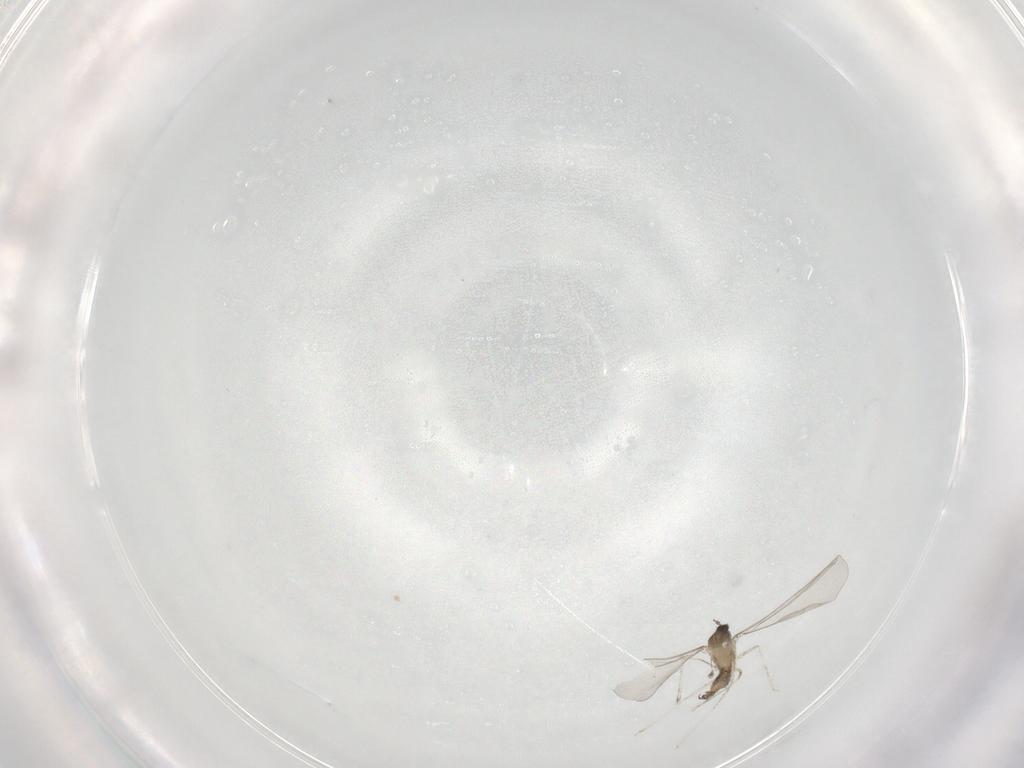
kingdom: Animalia
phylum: Arthropoda
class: Insecta
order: Diptera
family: Cecidomyiidae
